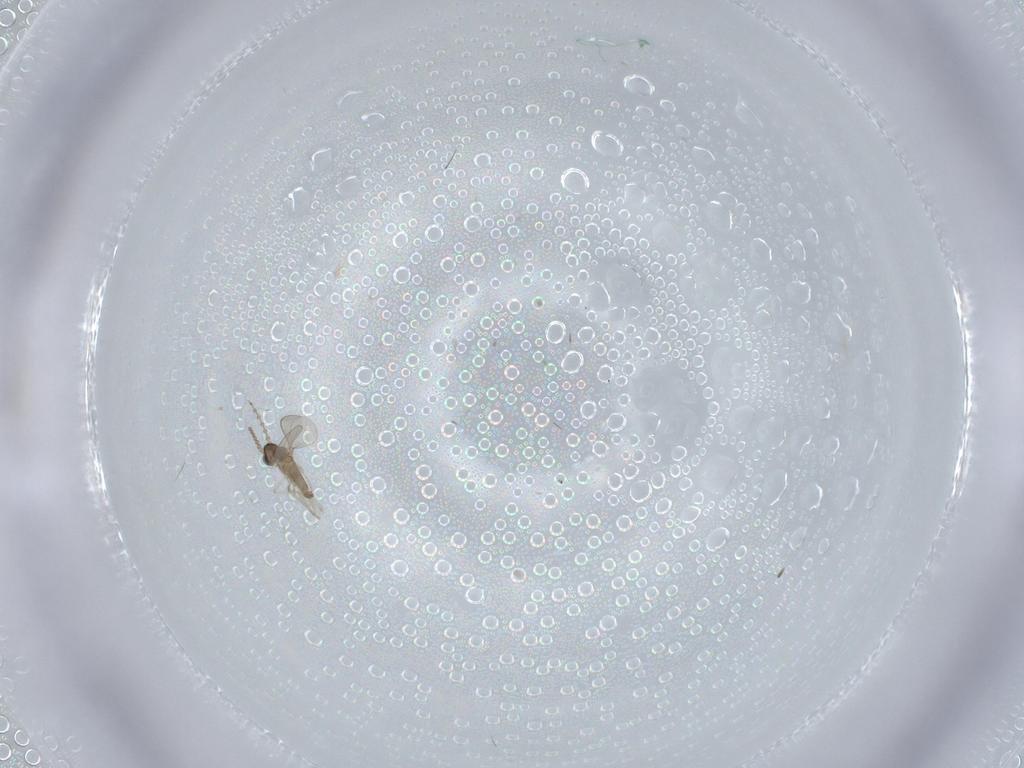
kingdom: Animalia
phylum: Arthropoda
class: Insecta
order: Diptera
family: Cecidomyiidae
